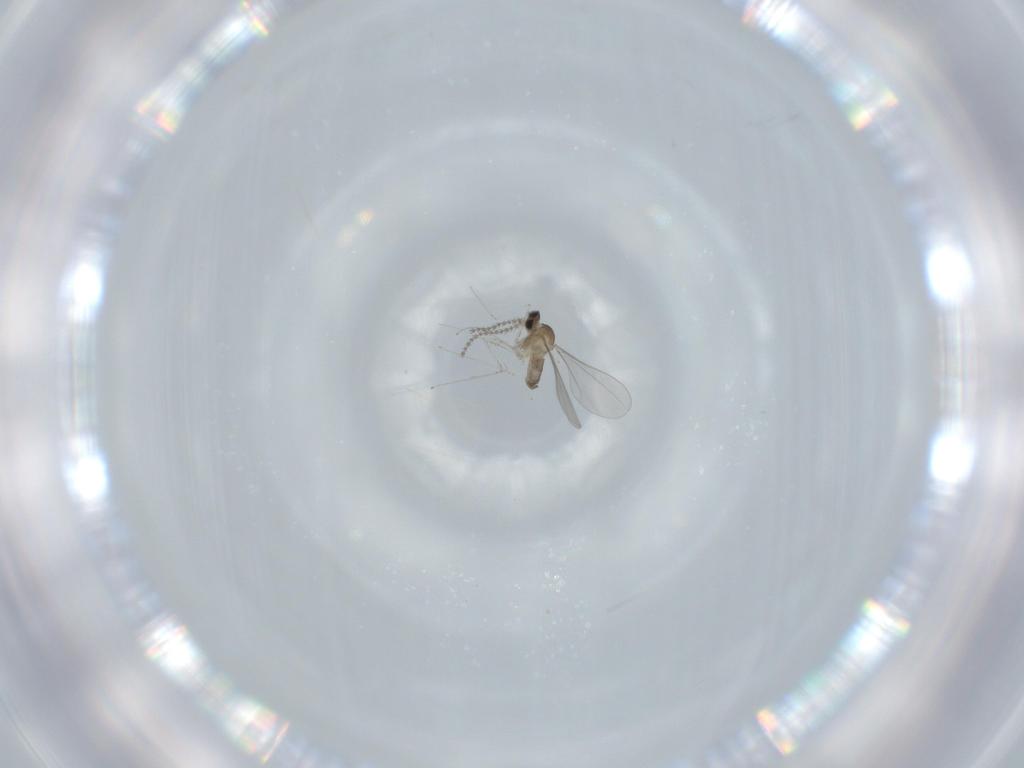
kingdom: Animalia
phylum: Arthropoda
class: Insecta
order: Diptera
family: Cecidomyiidae
